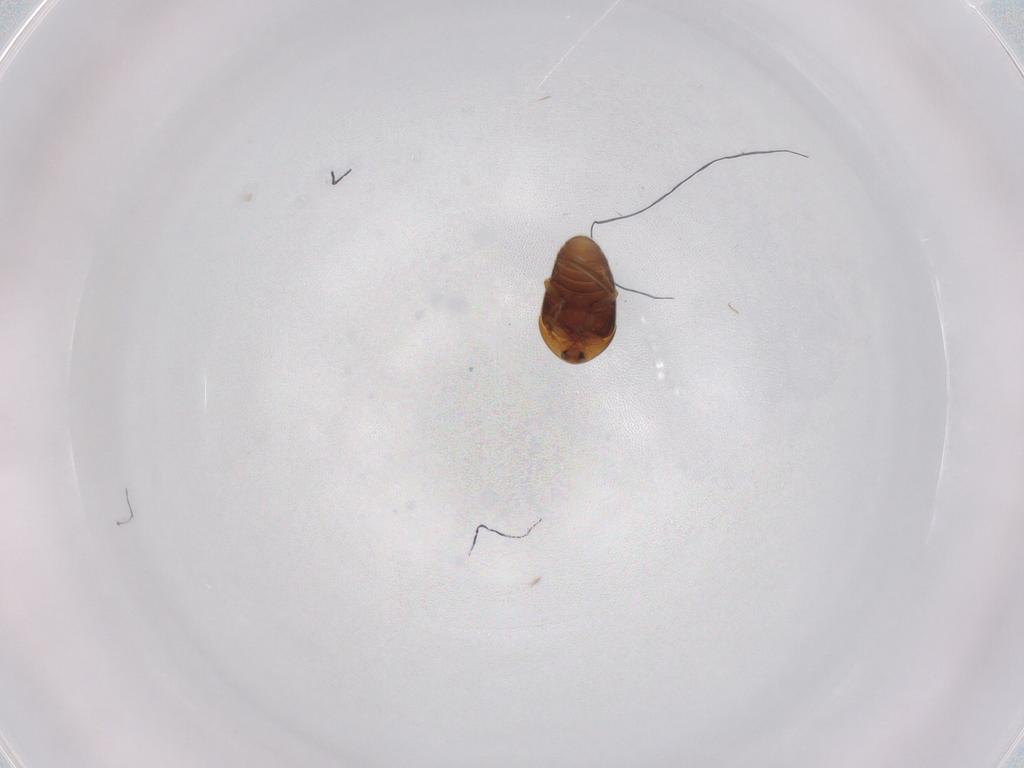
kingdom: Animalia
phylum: Arthropoda
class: Insecta
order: Coleoptera
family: Corylophidae
